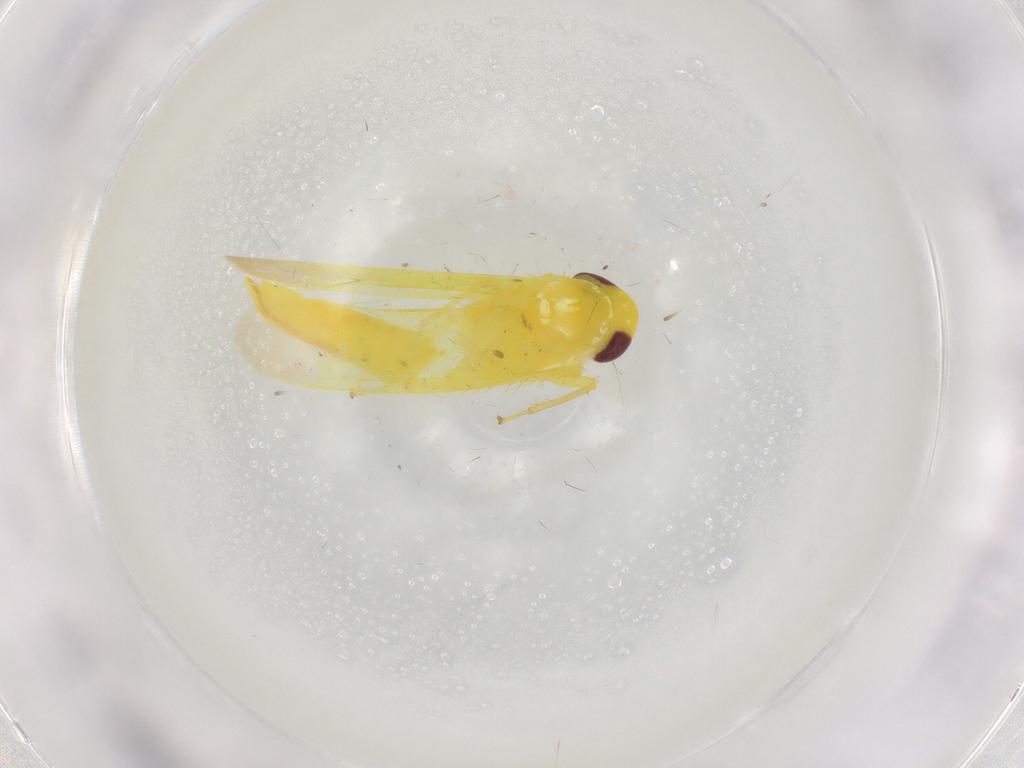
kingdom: Animalia
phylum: Arthropoda
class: Insecta
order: Hemiptera
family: Cicadellidae
